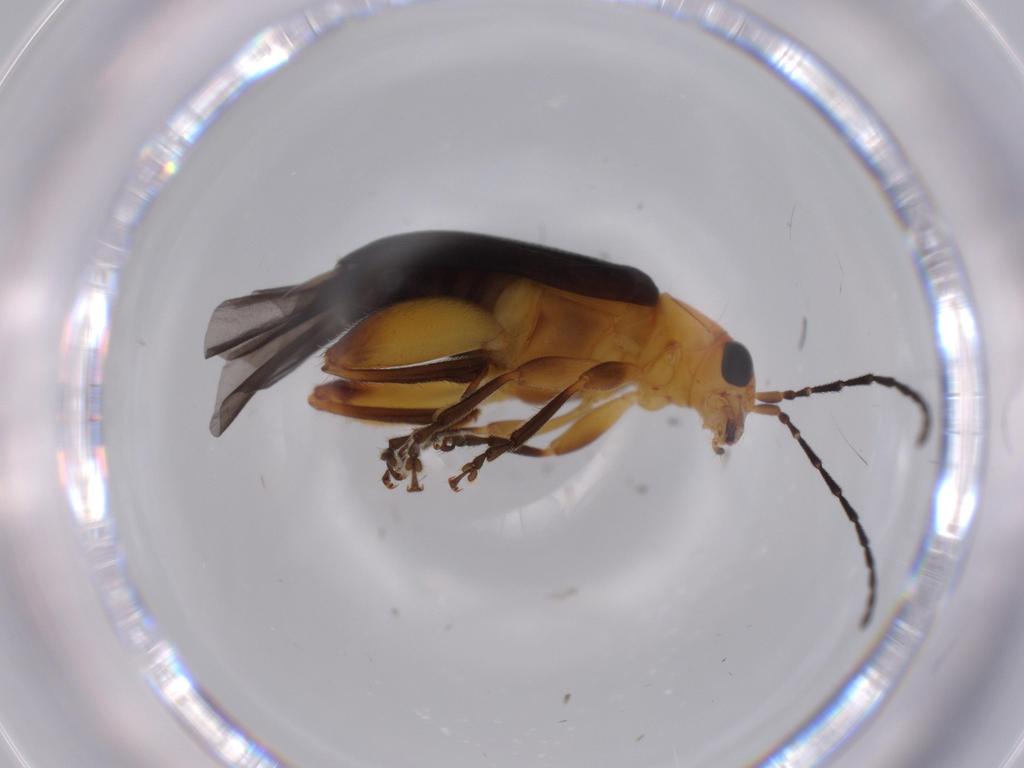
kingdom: Animalia
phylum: Arthropoda
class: Insecta
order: Coleoptera
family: Chrysomelidae
